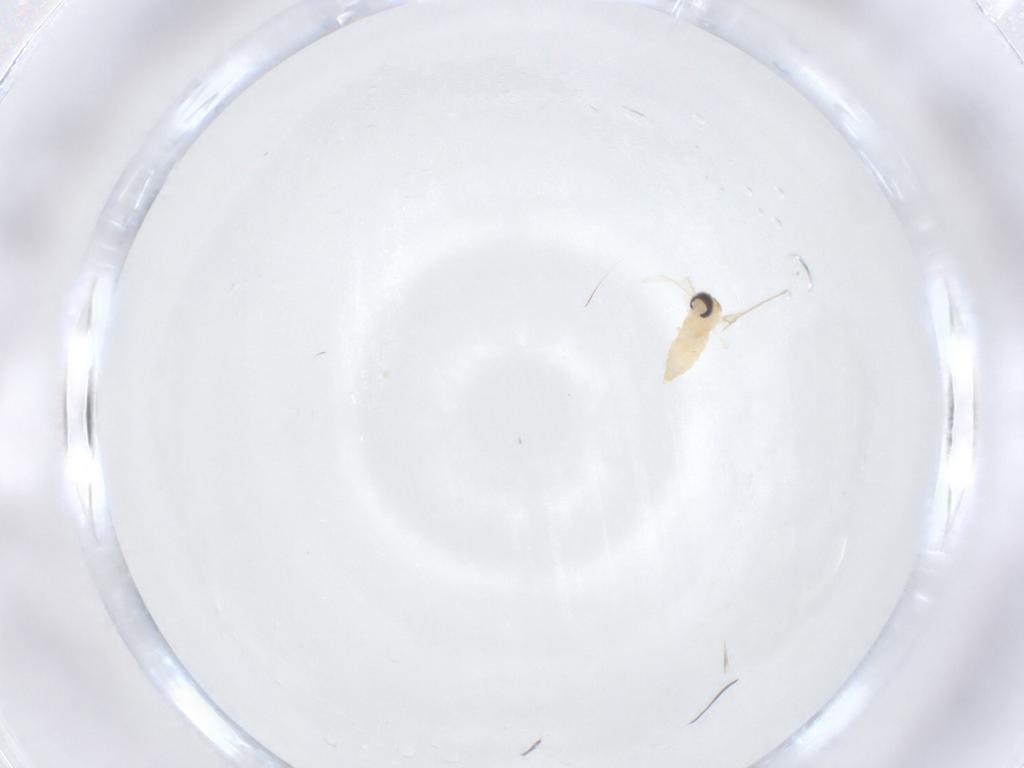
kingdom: Animalia
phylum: Arthropoda
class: Insecta
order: Diptera
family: Cecidomyiidae
